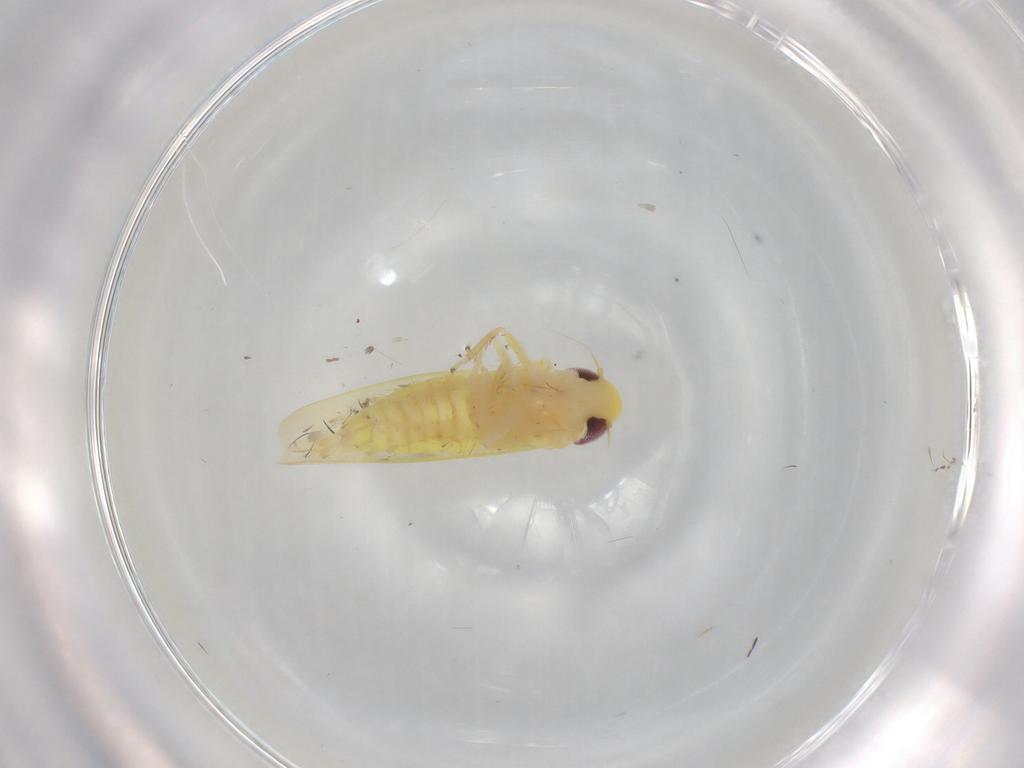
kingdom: Animalia
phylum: Arthropoda
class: Insecta
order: Hemiptera
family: Cicadellidae
